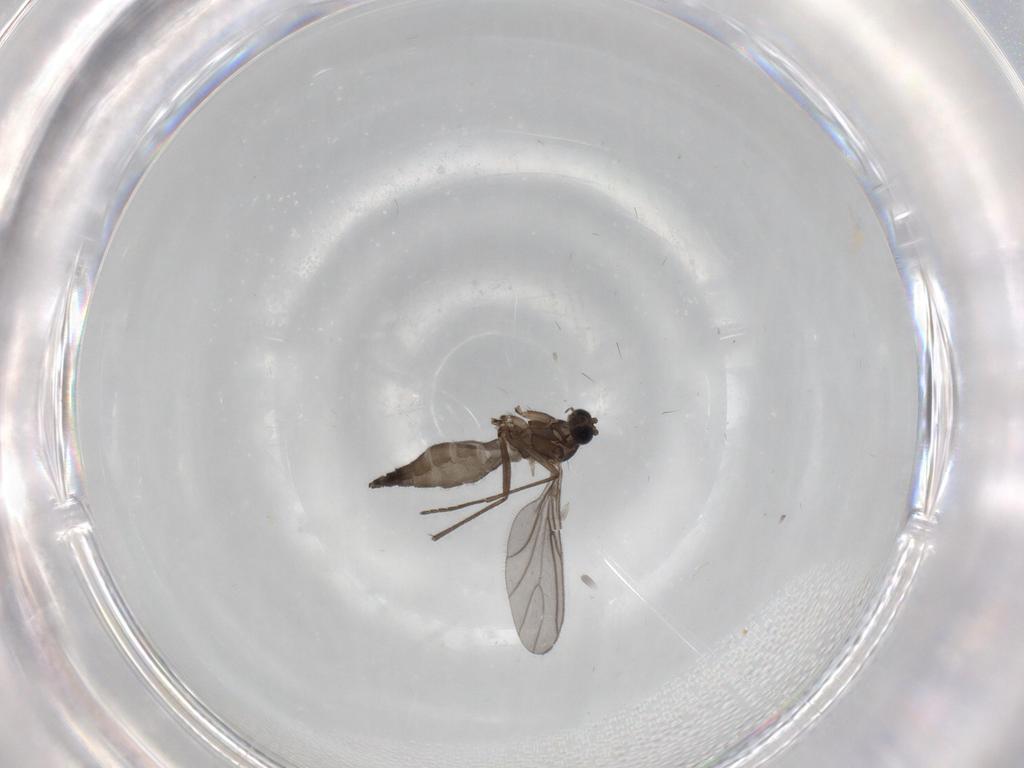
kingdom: Animalia
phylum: Arthropoda
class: Insecta
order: Diptera
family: Sciaridae
